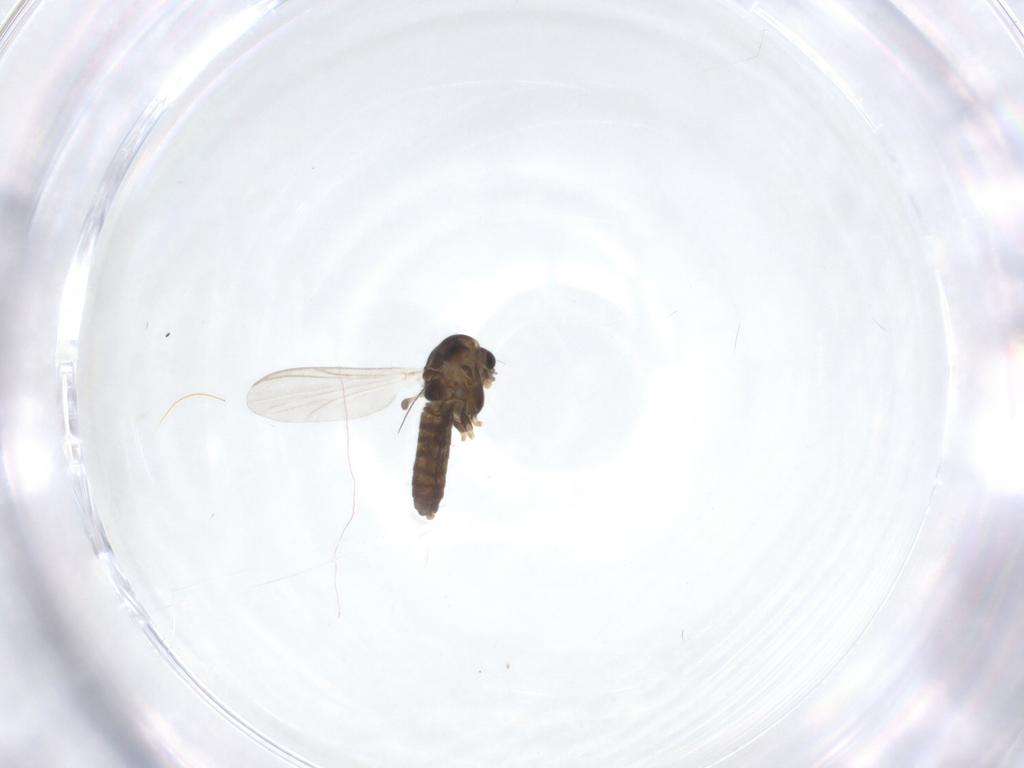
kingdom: Animalia
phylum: Arthropoda
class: Insecta
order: Diptera
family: Chironomidae
